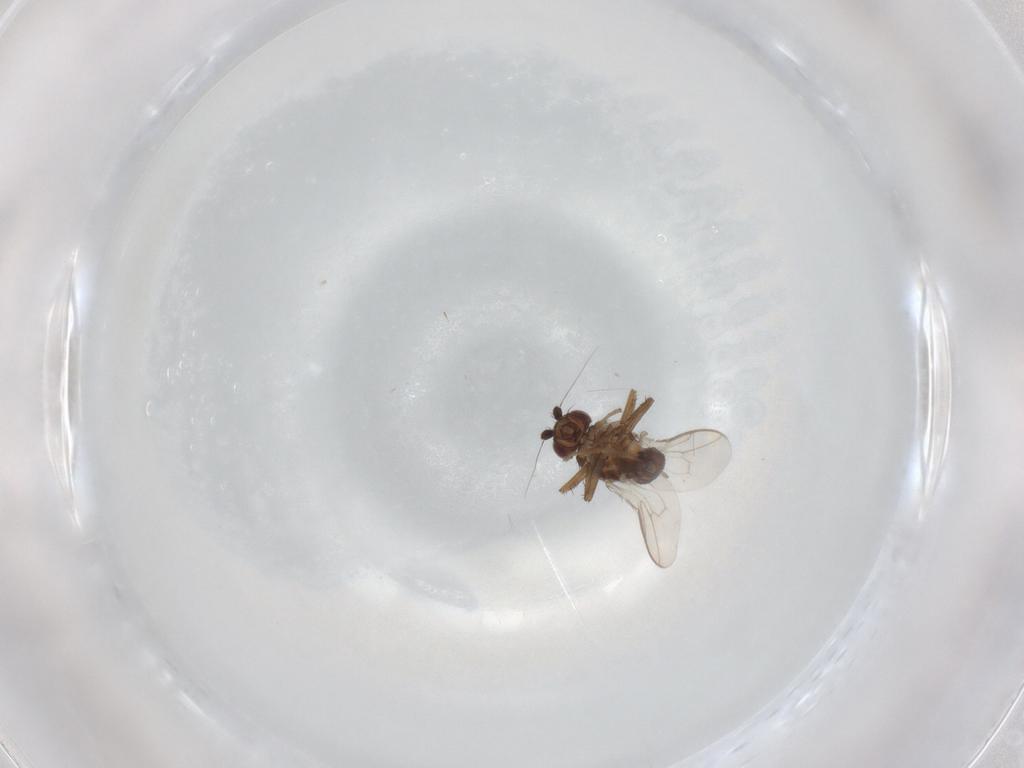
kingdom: Animalia
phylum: Arthropoda
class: Insecta
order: Diptera
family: Sphaeroceridae
